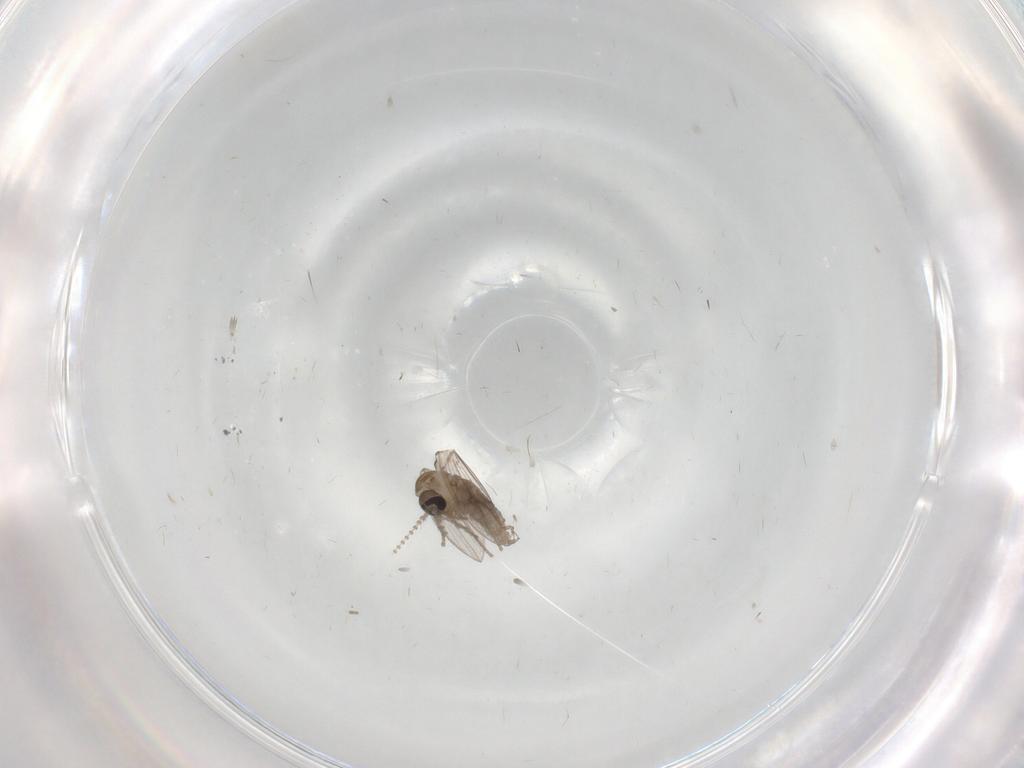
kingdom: Animalia
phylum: Arthropoda
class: Insecta
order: Diptera
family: Psychodidae
